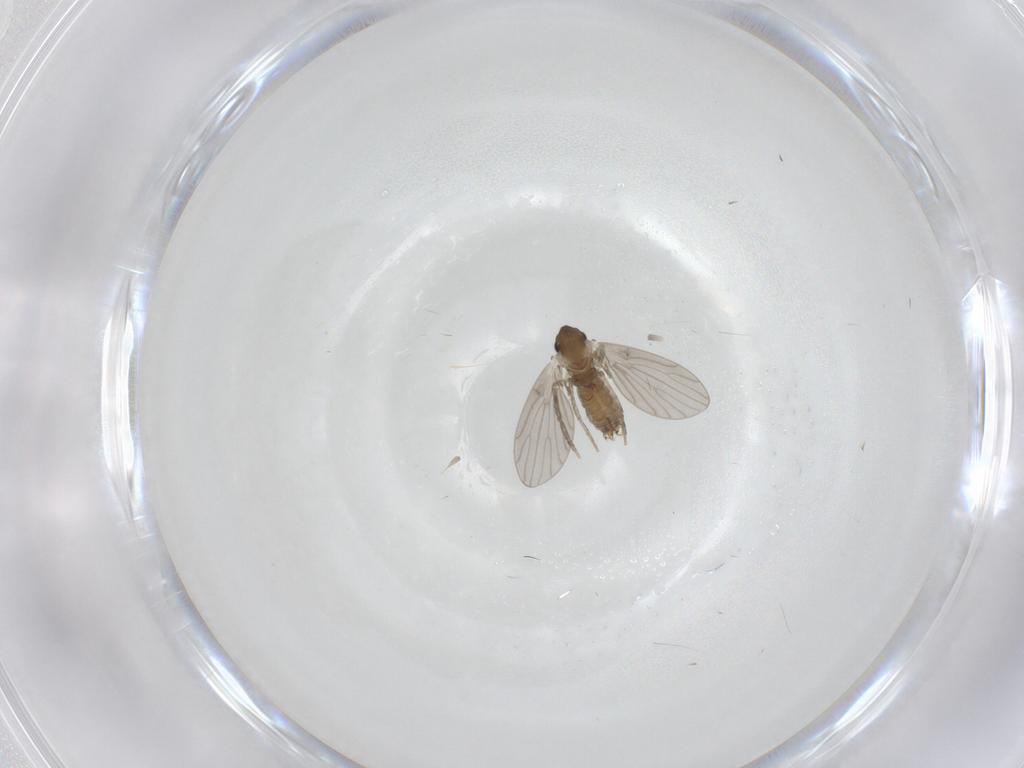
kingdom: Animalia
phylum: Arthropoda
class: Insecta
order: Diptera
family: Psychodidae
